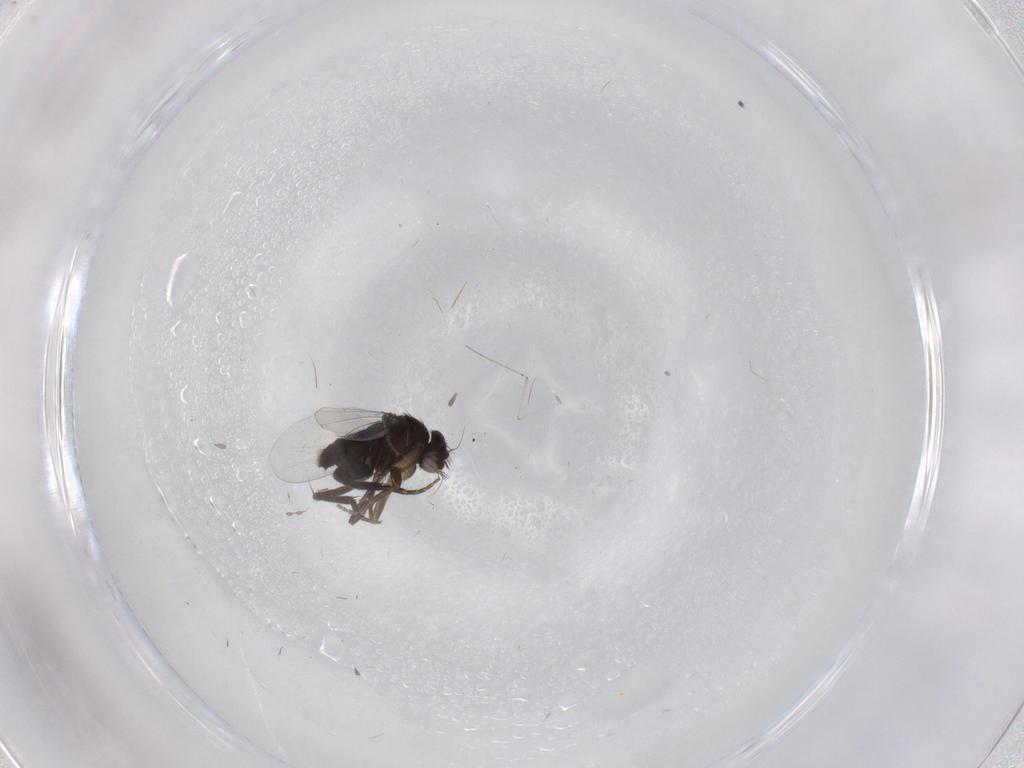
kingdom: Animalia
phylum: Arthropoda
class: Insecta
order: Diptera
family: Phoridae
